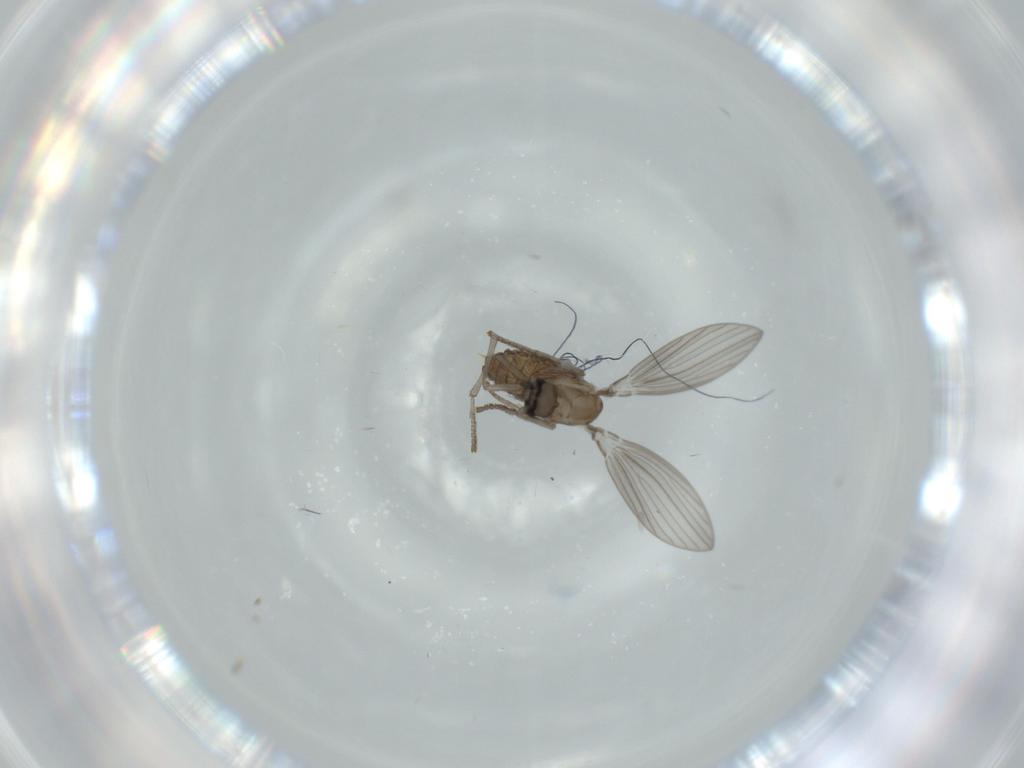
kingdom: Animalia
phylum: Arthropoda
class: Insecta
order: Diptera
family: Psychodidae
